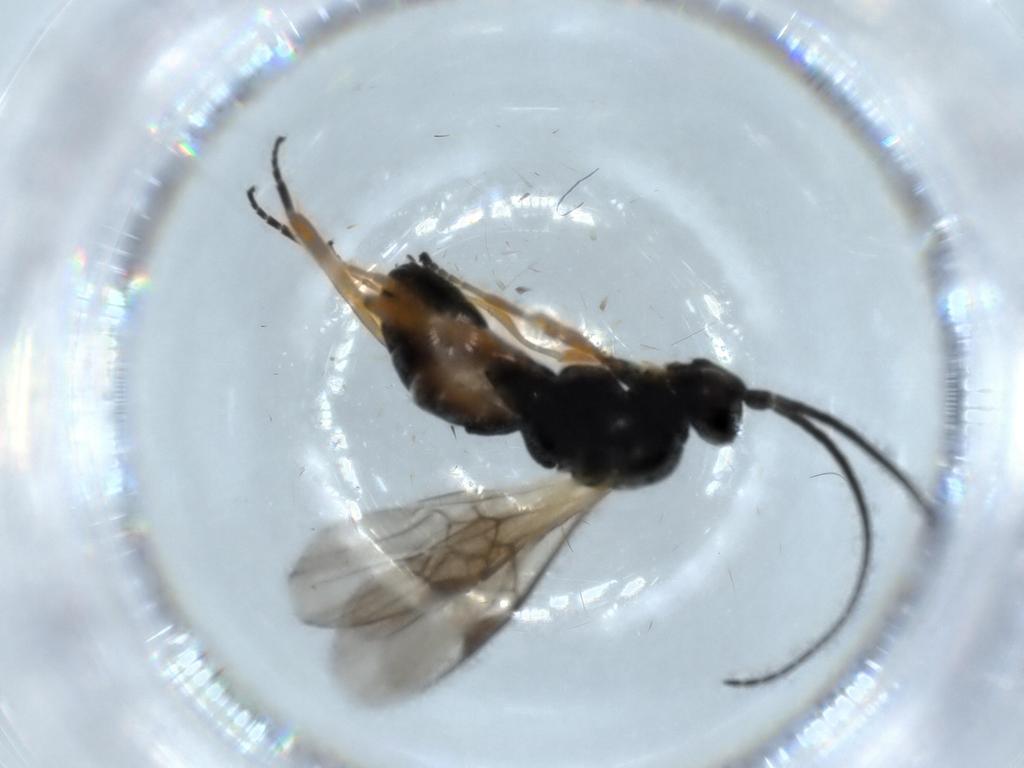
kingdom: Animalia
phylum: Arthropoda
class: Insecta
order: Hymenoptera
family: Braconidae
